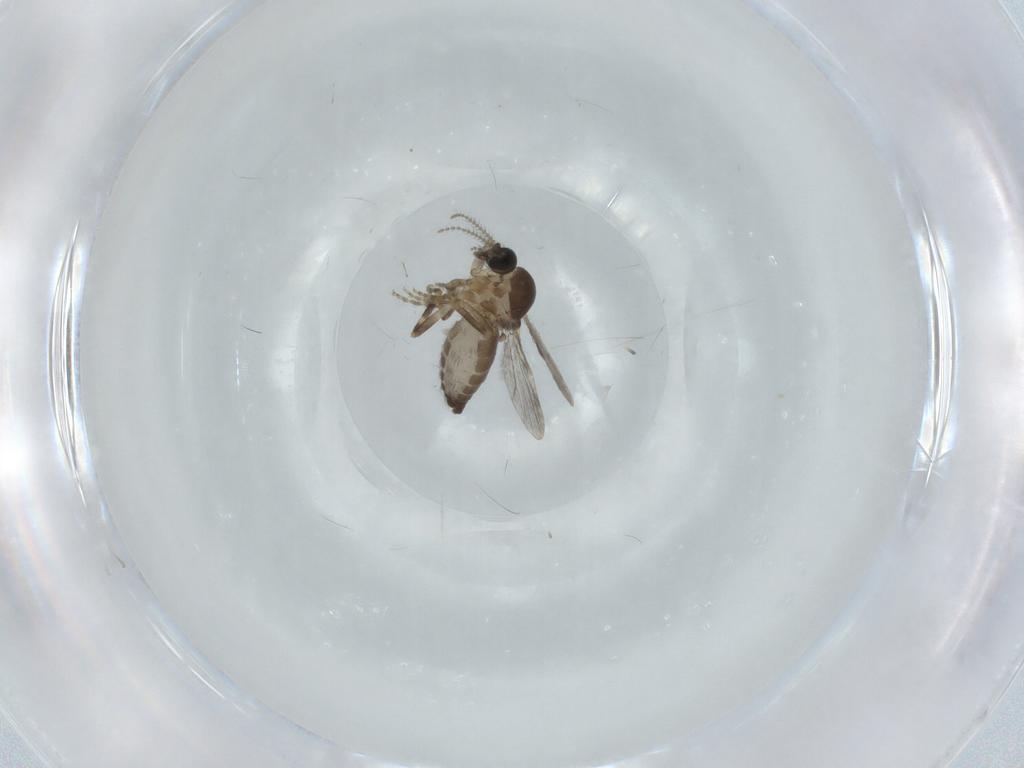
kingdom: Animalia
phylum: Arthropoda
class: Insecta
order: Diptera
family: Ceratopogonidae
